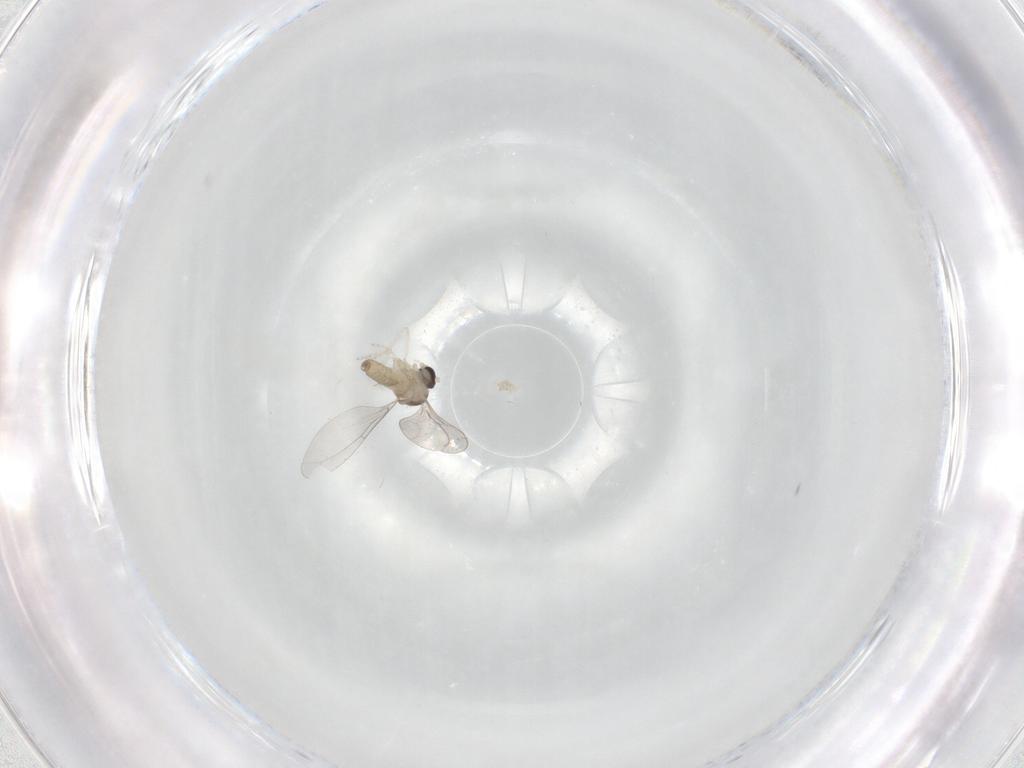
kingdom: Animalia
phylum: Arthropoda
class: Insecta
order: Diptera
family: Cecidomyiidae
